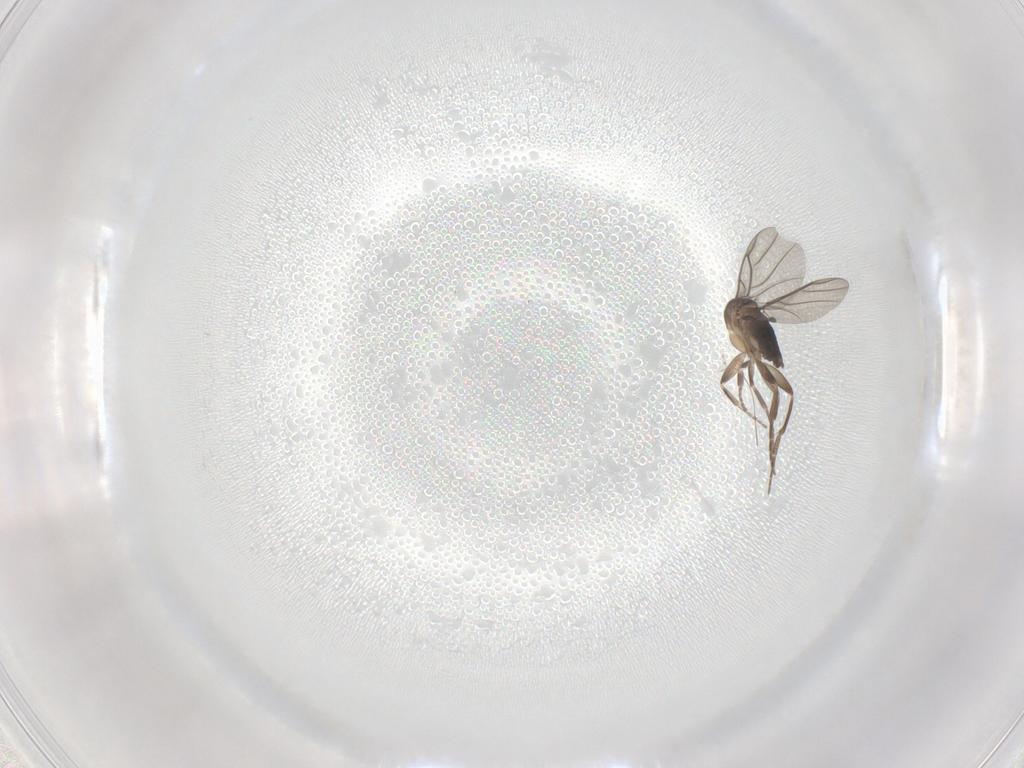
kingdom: Animalia
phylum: Arthropoda
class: Insecta
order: Diptera
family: Phoridae
